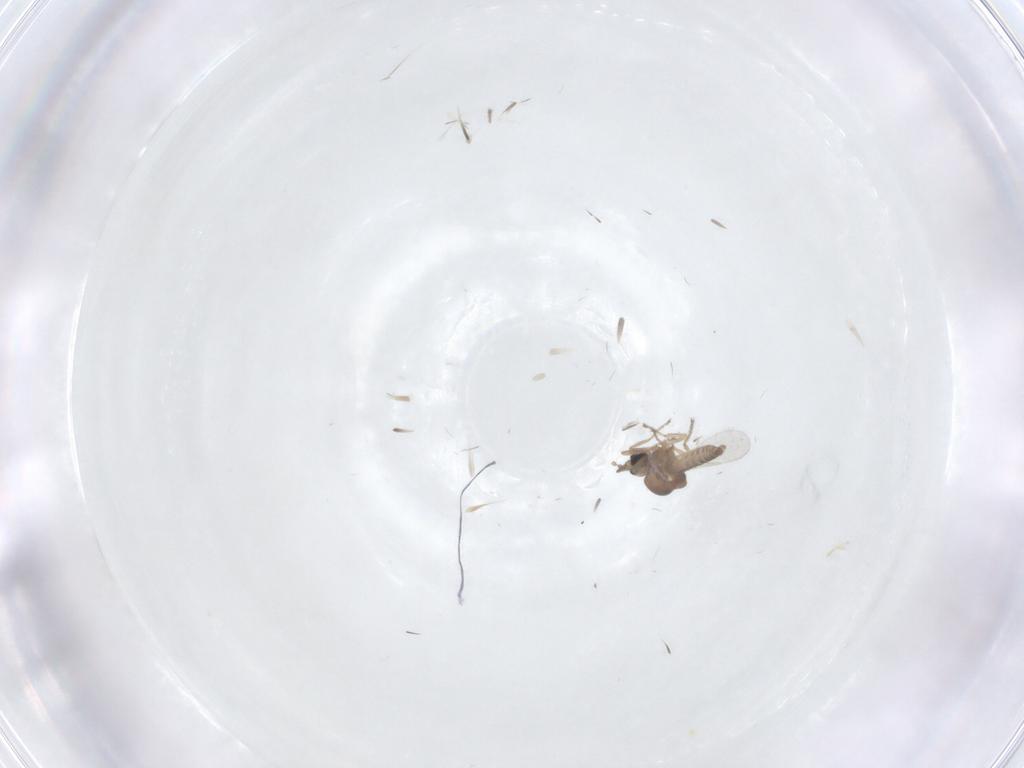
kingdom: Animalia
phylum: Arthropoda
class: Insecta
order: Diptera
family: Ceratopogonidae
